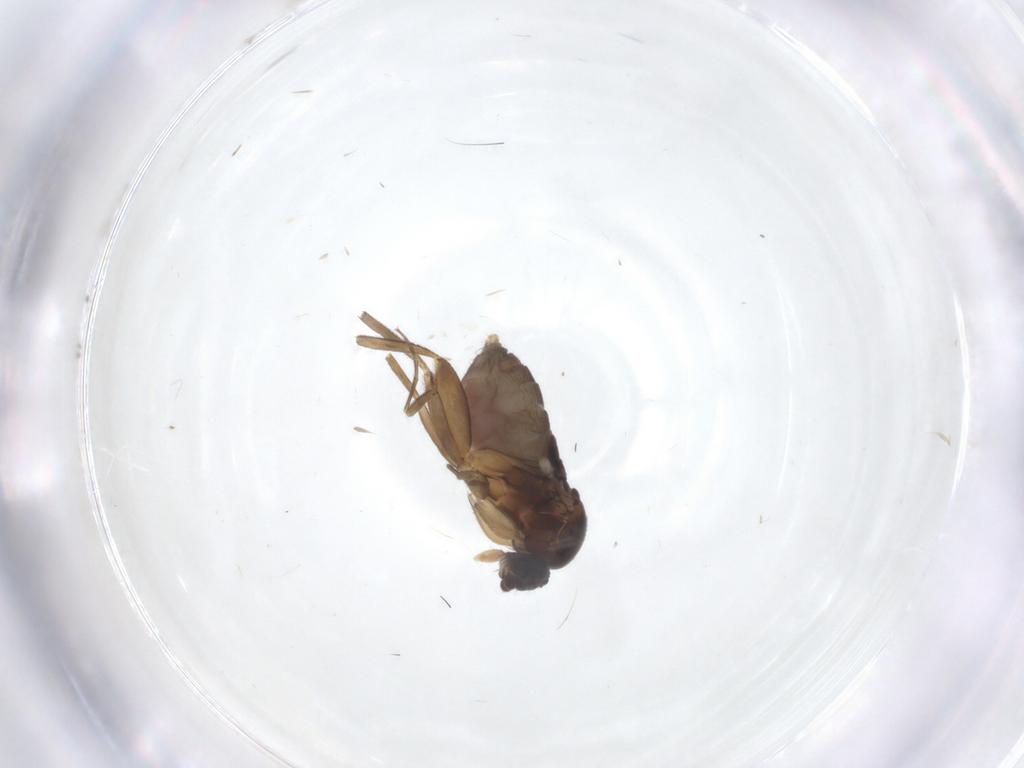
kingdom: Animalia
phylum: Arthropoda
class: Insecta
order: Diptera
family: Phoridae
